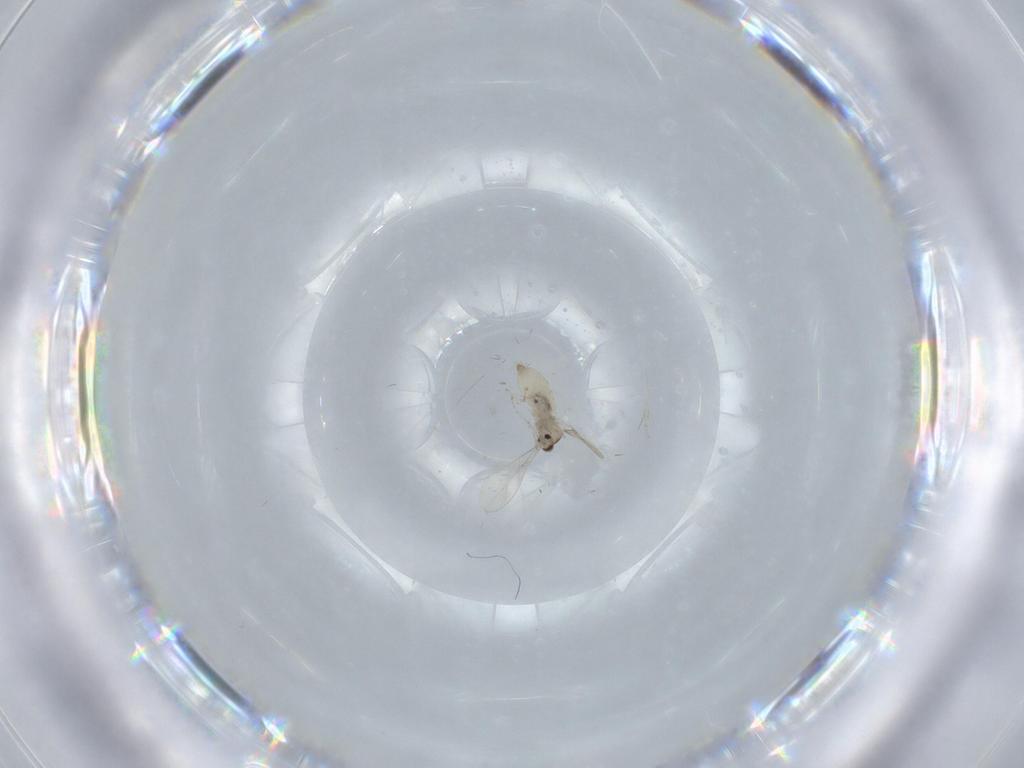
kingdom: Animalia
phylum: Arthropoda
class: Insecta
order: Diptera
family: Cecidomyiidae
